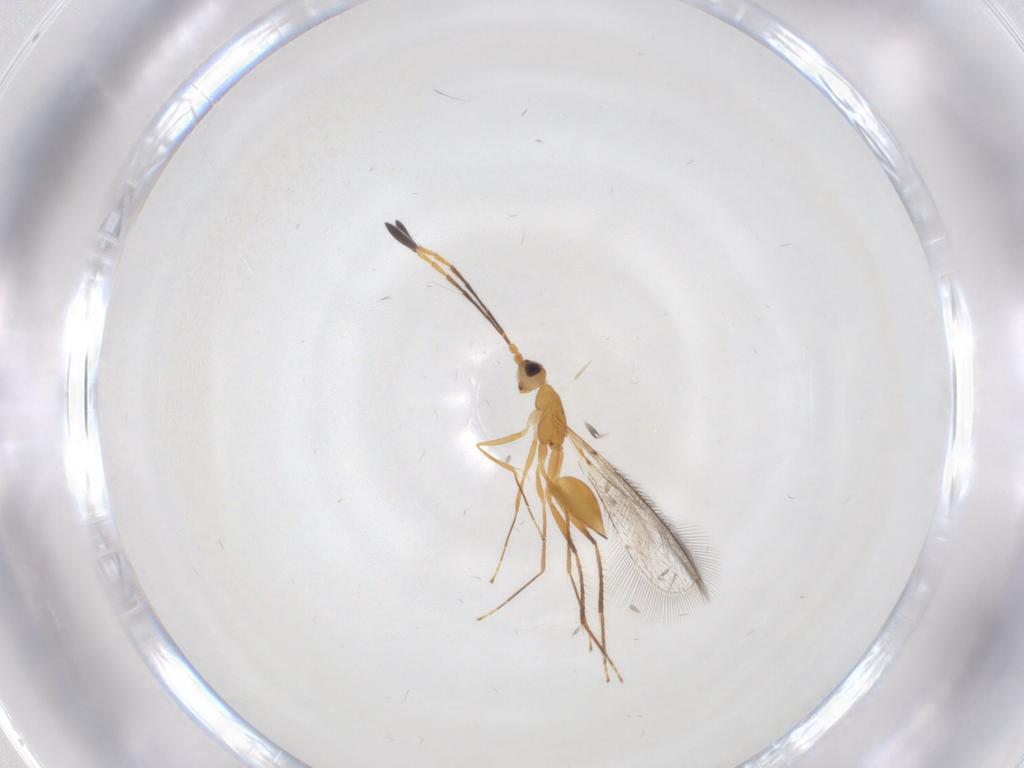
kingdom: Animalia
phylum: Arthropoda
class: Insecta
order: Hymenoptera
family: Mymaridae
